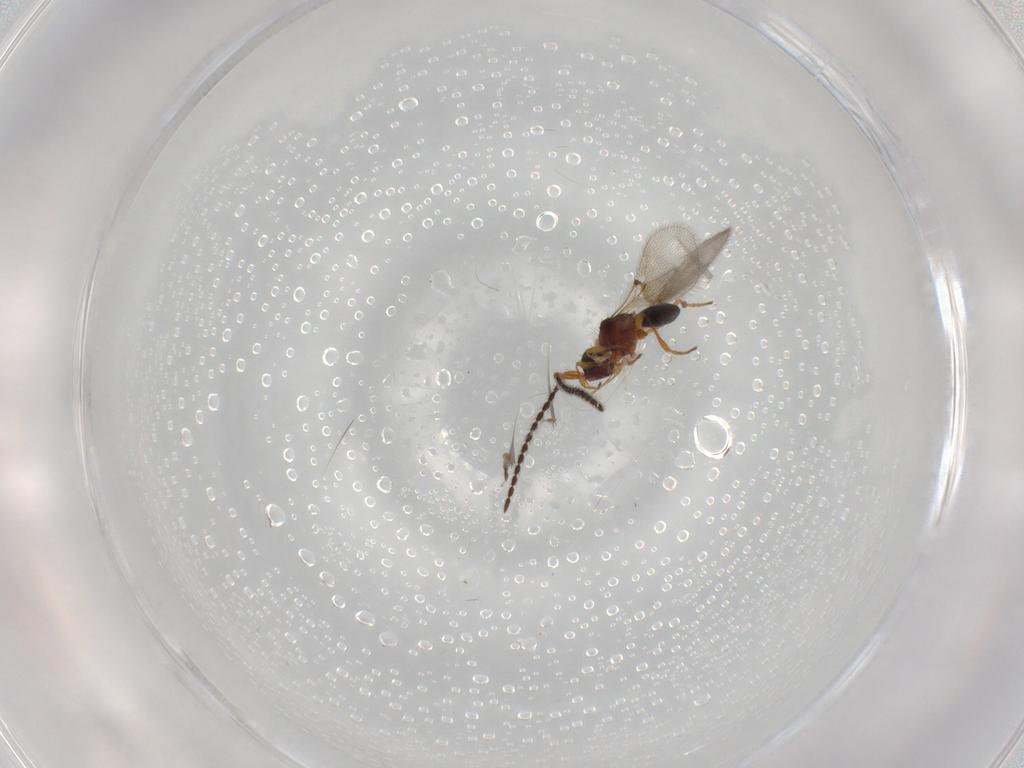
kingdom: Animalia
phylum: Arthropoda
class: Insecta
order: Hymenoptera
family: Diapriidae
